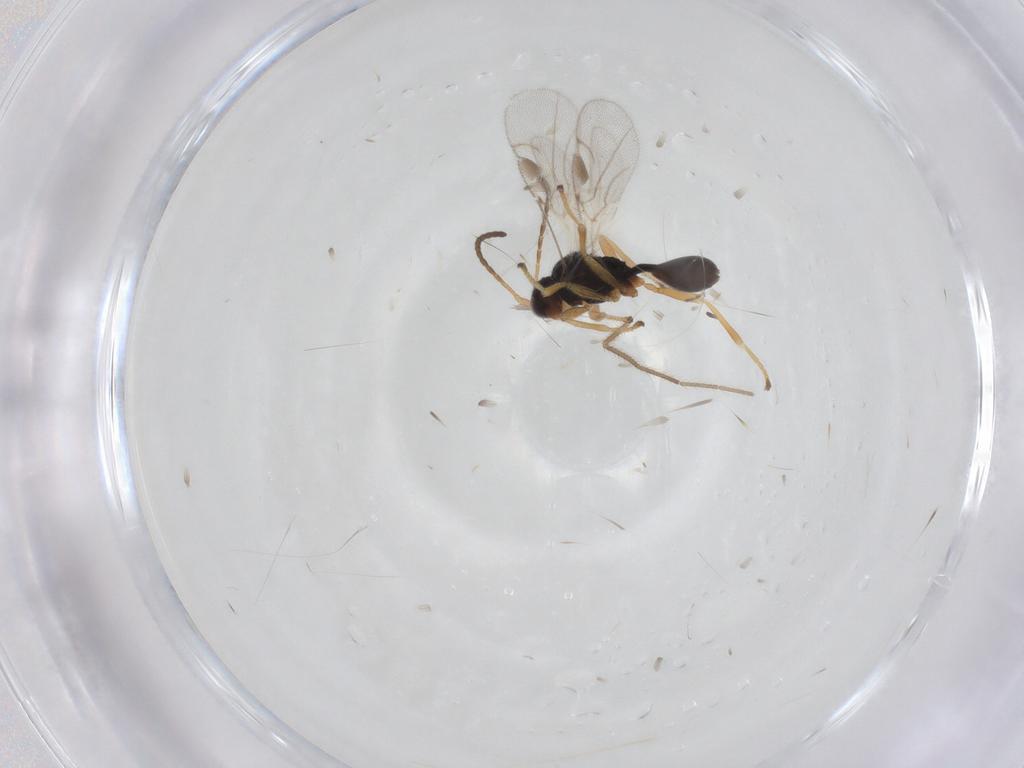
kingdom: Animalia
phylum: Arthropoda
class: Insecta
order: Hymenoptera
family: Braconidae
